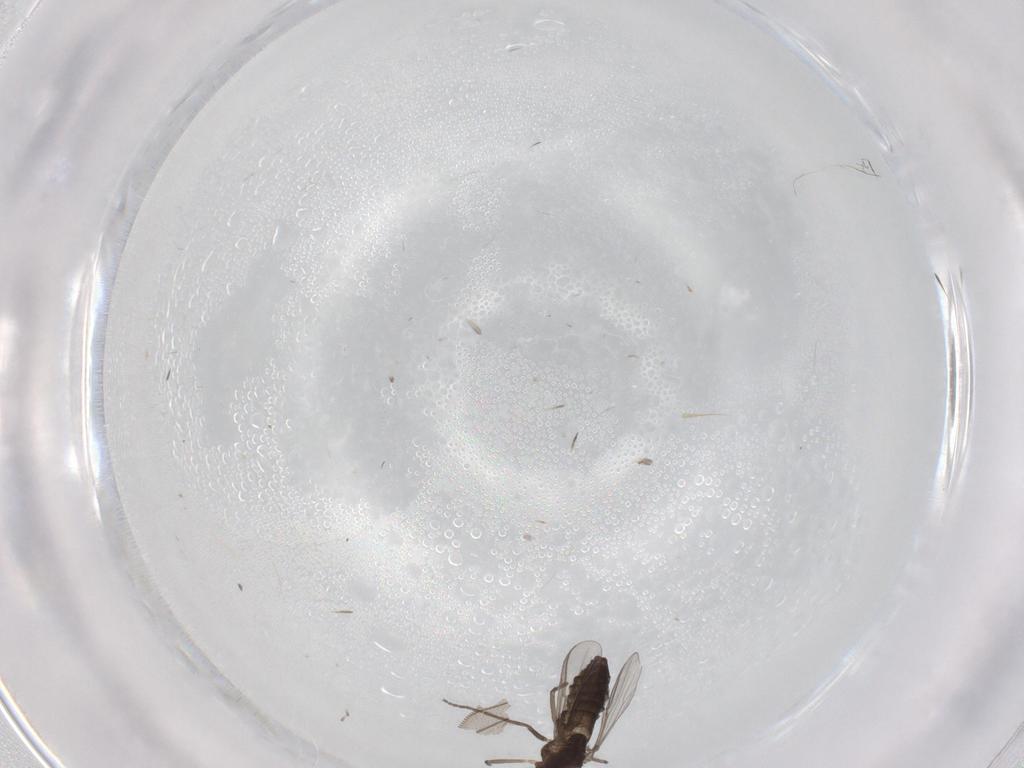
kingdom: Animalia
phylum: Arthropoda
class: Insecta
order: Diptera
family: Chironomidae
